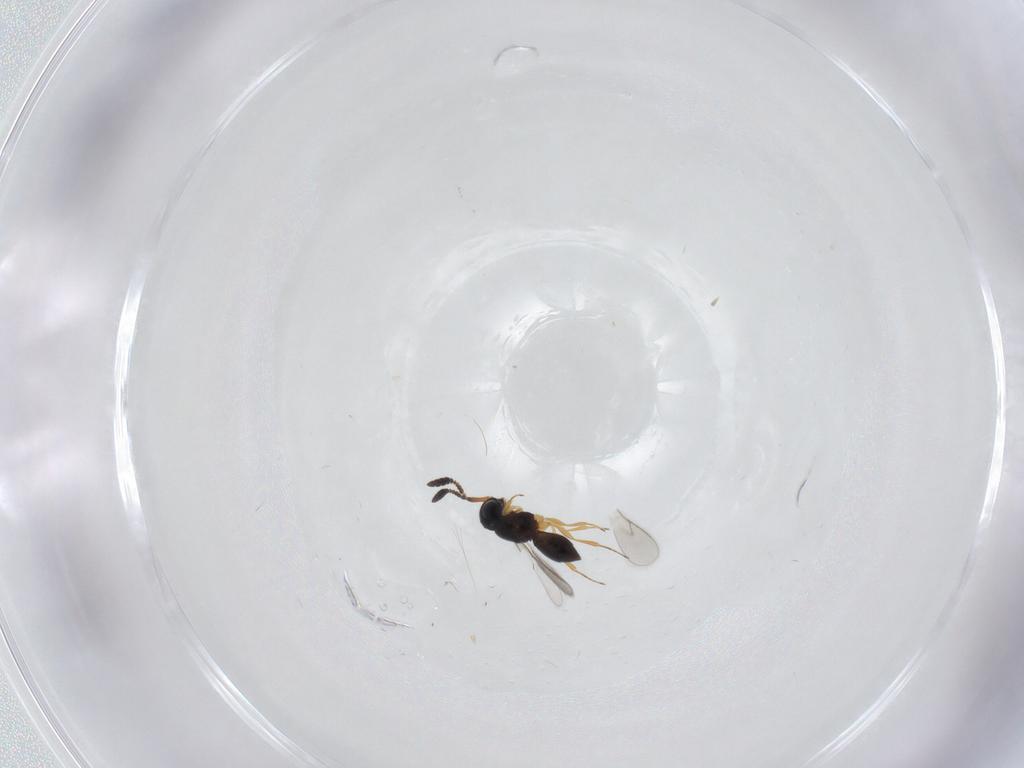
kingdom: Animalia
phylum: Arthropoda
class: Insecta
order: Hymenoptera
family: Scelionidae
